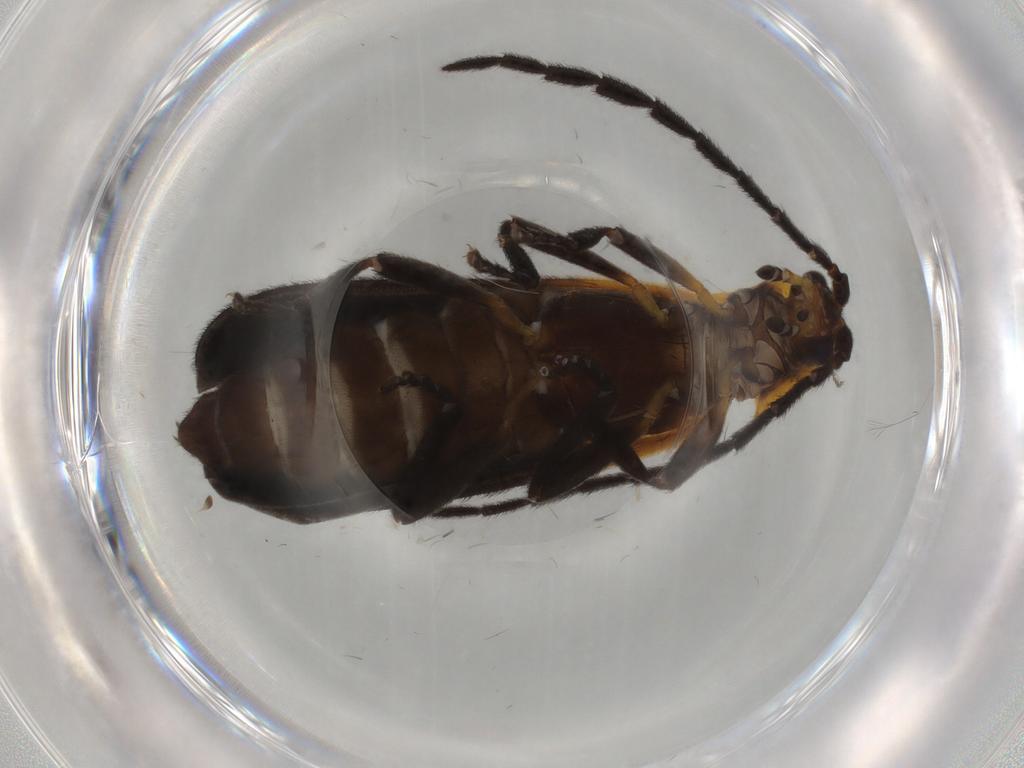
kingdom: Animalia
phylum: Arthropoda
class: Insecta
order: Coleoptera
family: Lycidae
